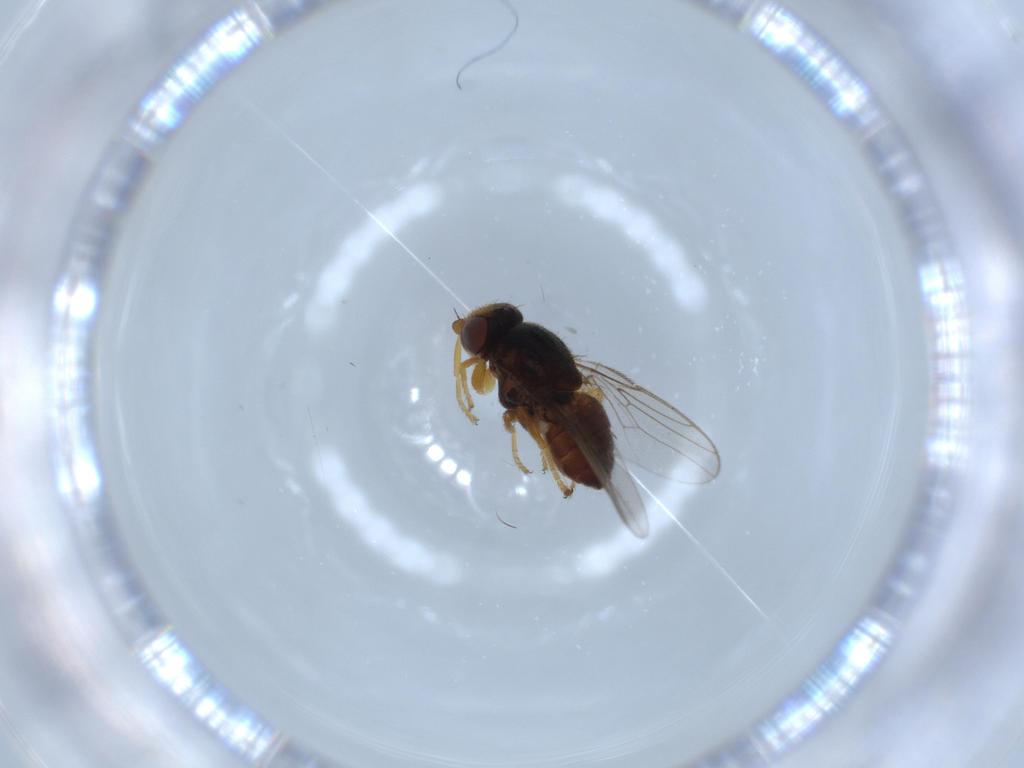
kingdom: Animalia
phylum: Arthropoda
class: Insecta
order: Diptera
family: Chloropidae
